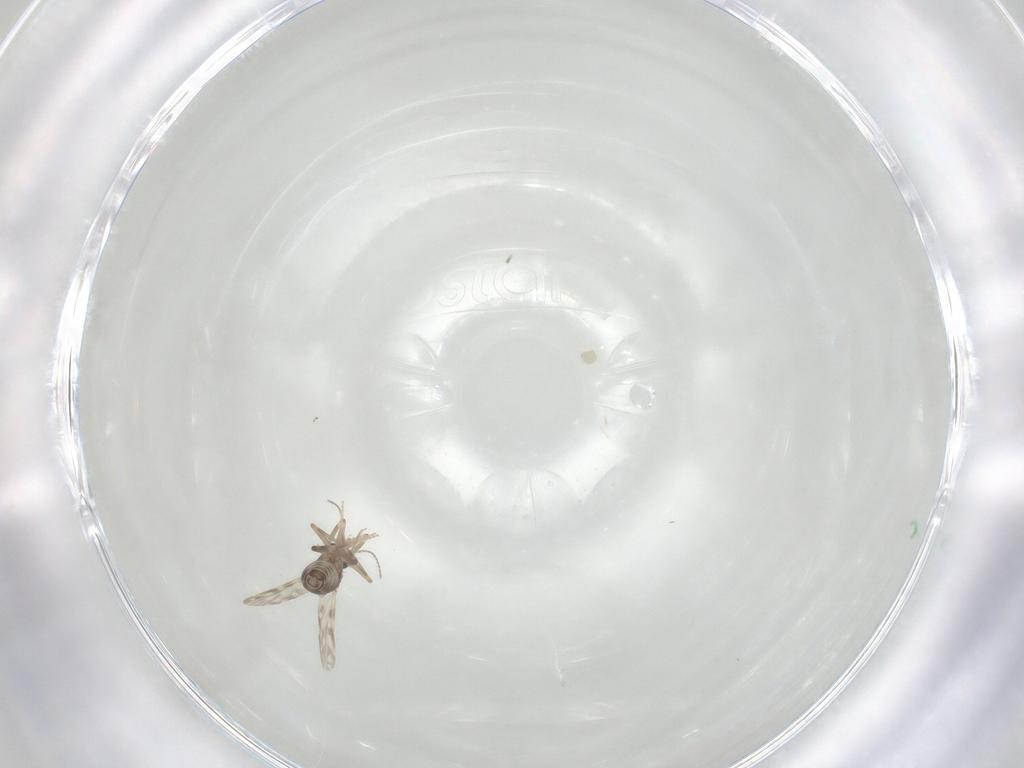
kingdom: Animalia
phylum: Arthropoda
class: Insecta
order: Diptera
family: Ceratopogonidae
